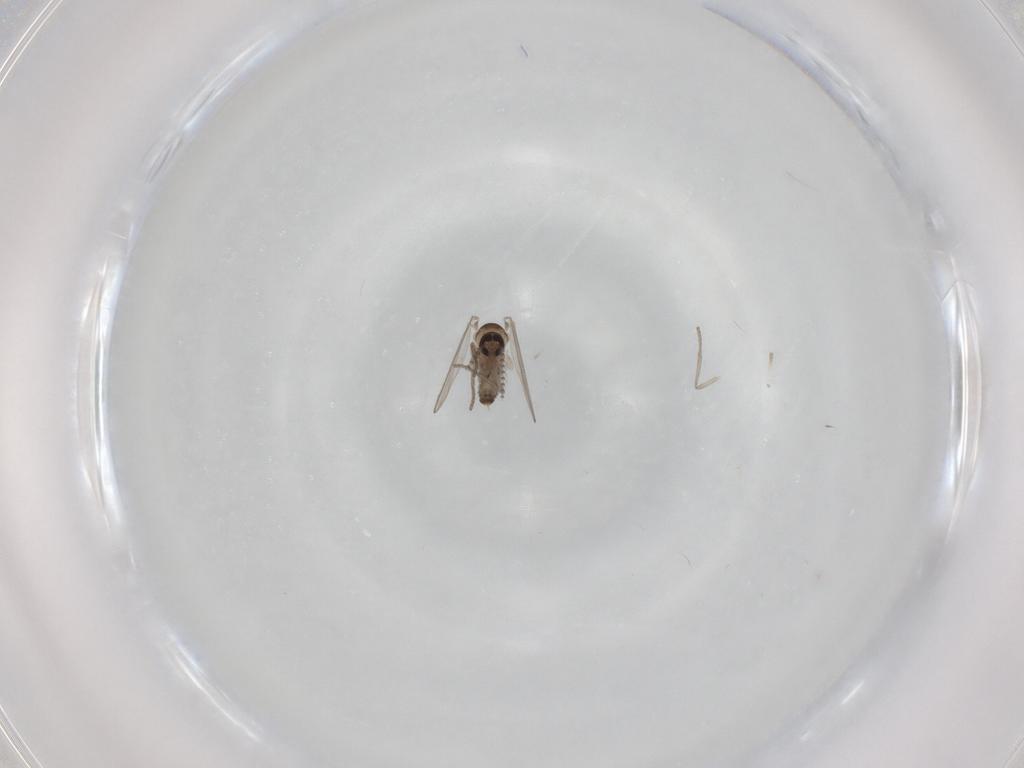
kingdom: Animalia
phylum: Arthropoda
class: Insecta
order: Diptera
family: Psychodidae
